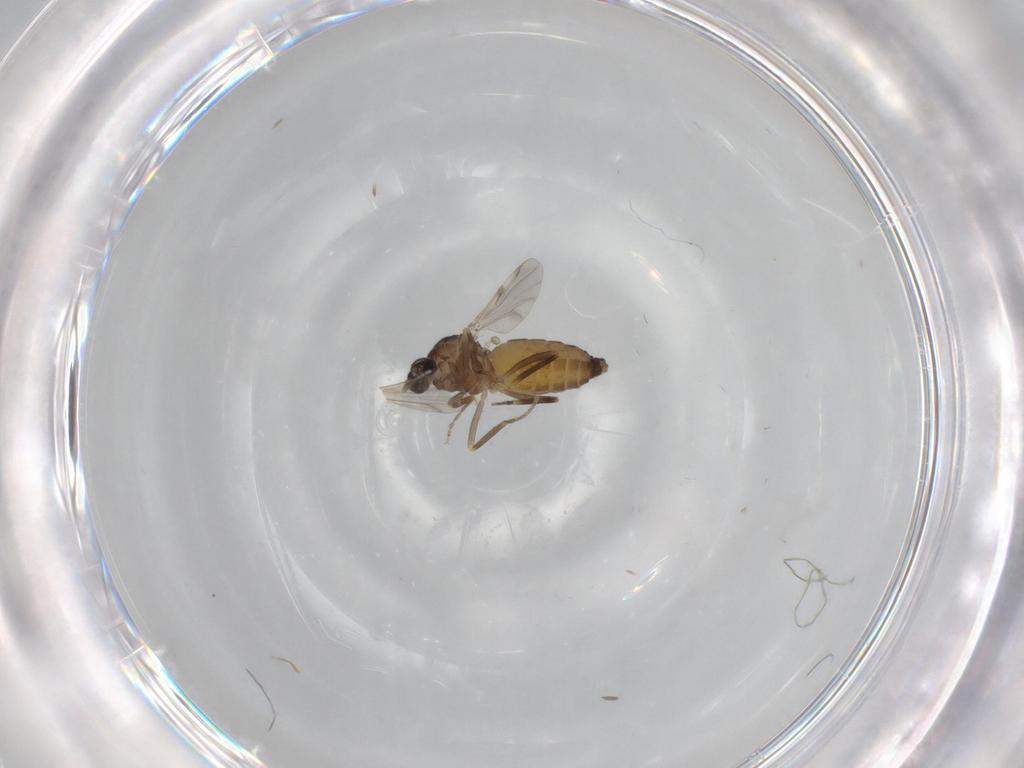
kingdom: Animalia
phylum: Arthropoda
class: Insecta
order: Diptera
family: Ceratopogonidae
